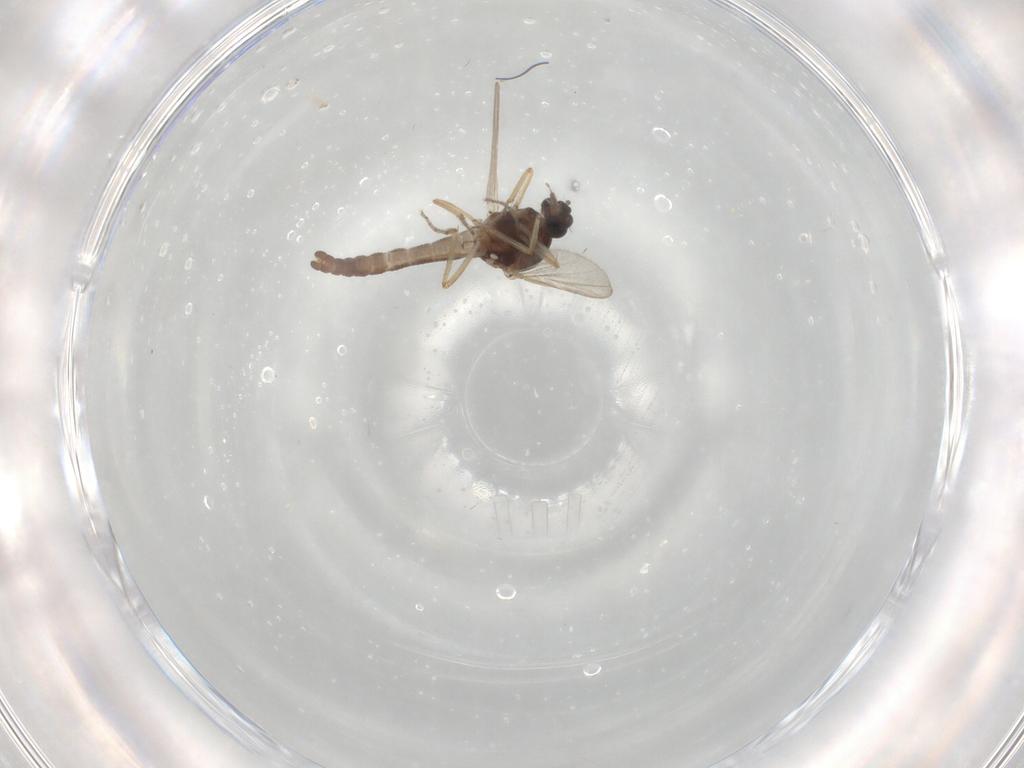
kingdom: Animalia
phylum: Arthropoda
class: Insecta
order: Diptera
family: Ceratopogonidae
